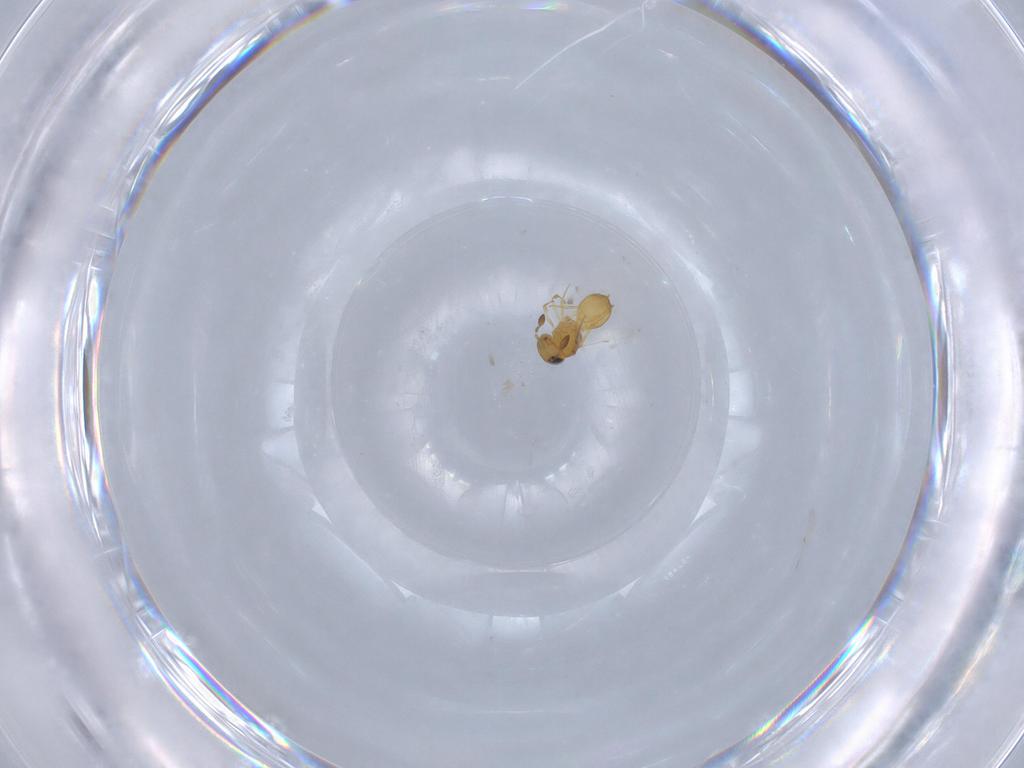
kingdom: Animalia
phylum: Arthropoda
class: Insecta
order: Hymenoptera
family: Scelionidae
